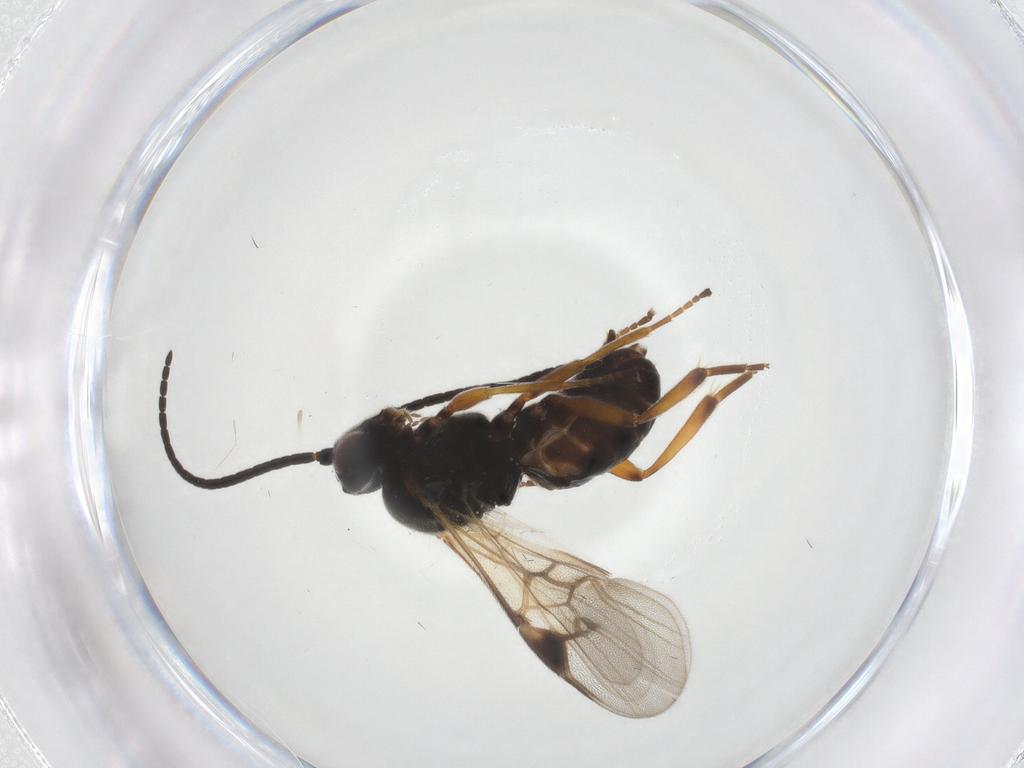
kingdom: Animalia
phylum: Arthropoda
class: Insecta
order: Hymenoptera
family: Braconidae
